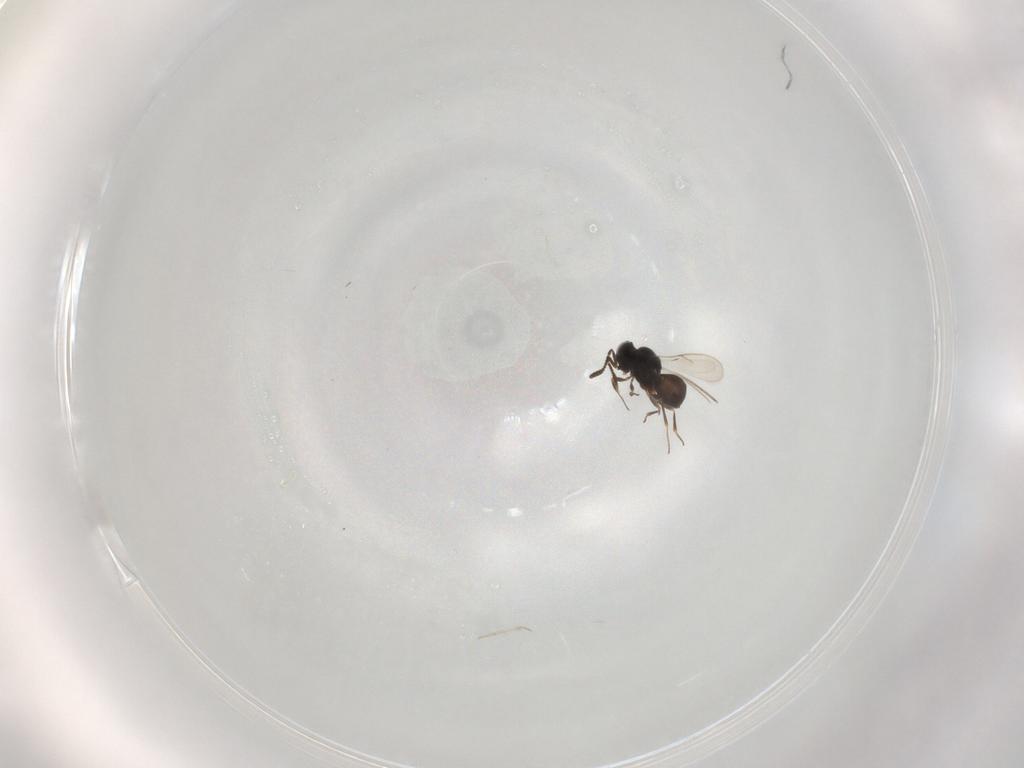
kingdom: Animalia
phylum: Arthropoda
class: Insecta
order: Hymenoptera
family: Scelionidae
